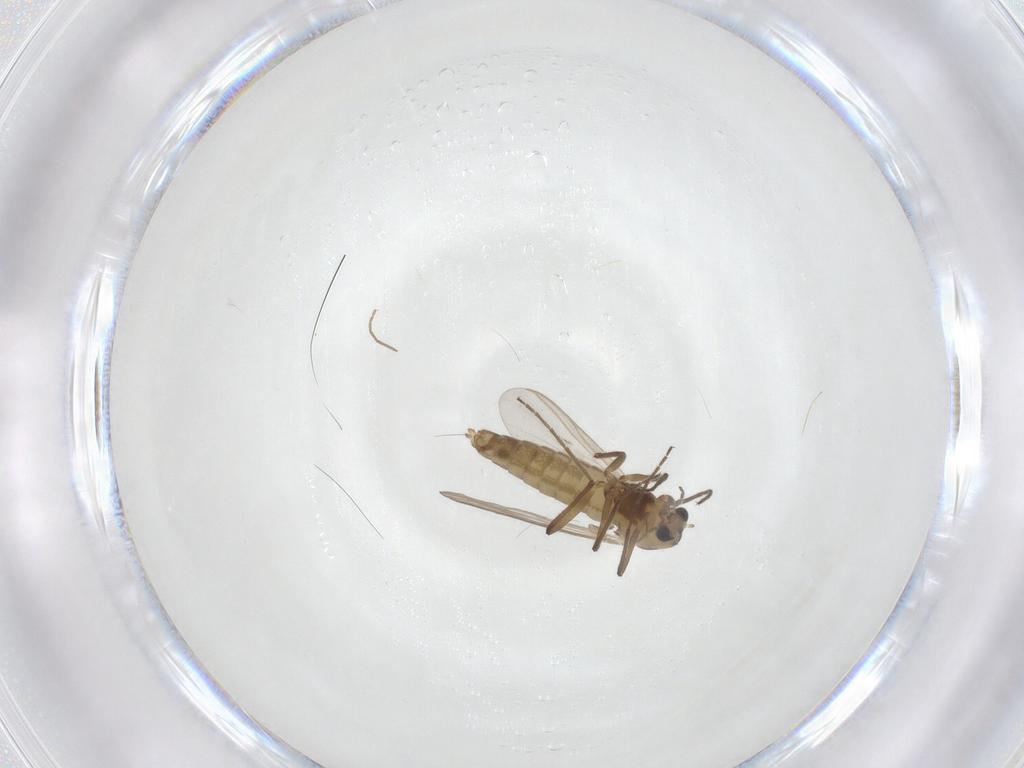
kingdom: Animalia
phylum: Arthropoda
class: Insecta
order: Diptera
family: Chironomidae
